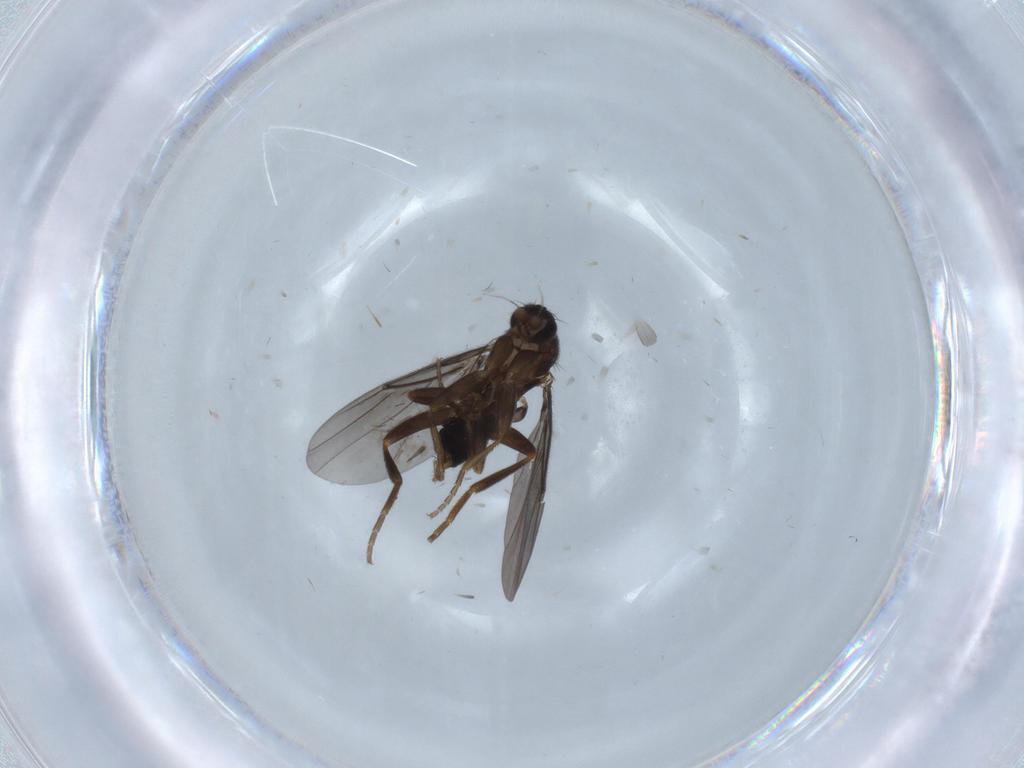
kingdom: Animalia
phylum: Arthropoda
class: Insecta
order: Diptera
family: Phoridae
